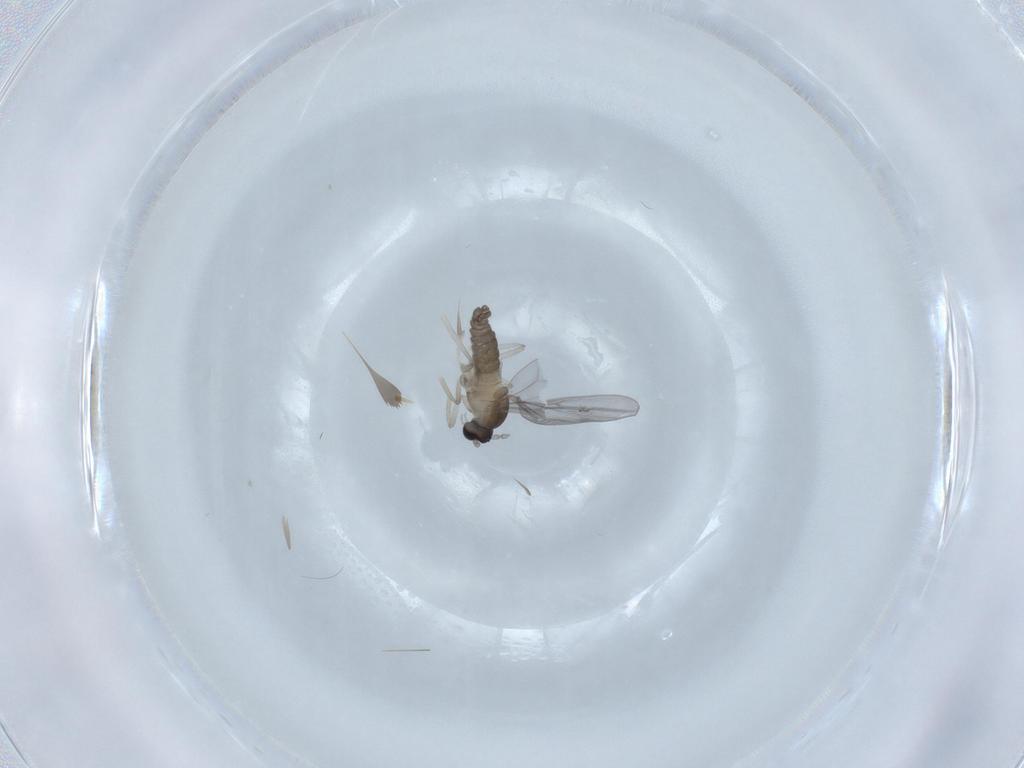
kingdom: Animalia
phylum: Arthropoda
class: Insecta
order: Diptera
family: Cecidomyiidae
